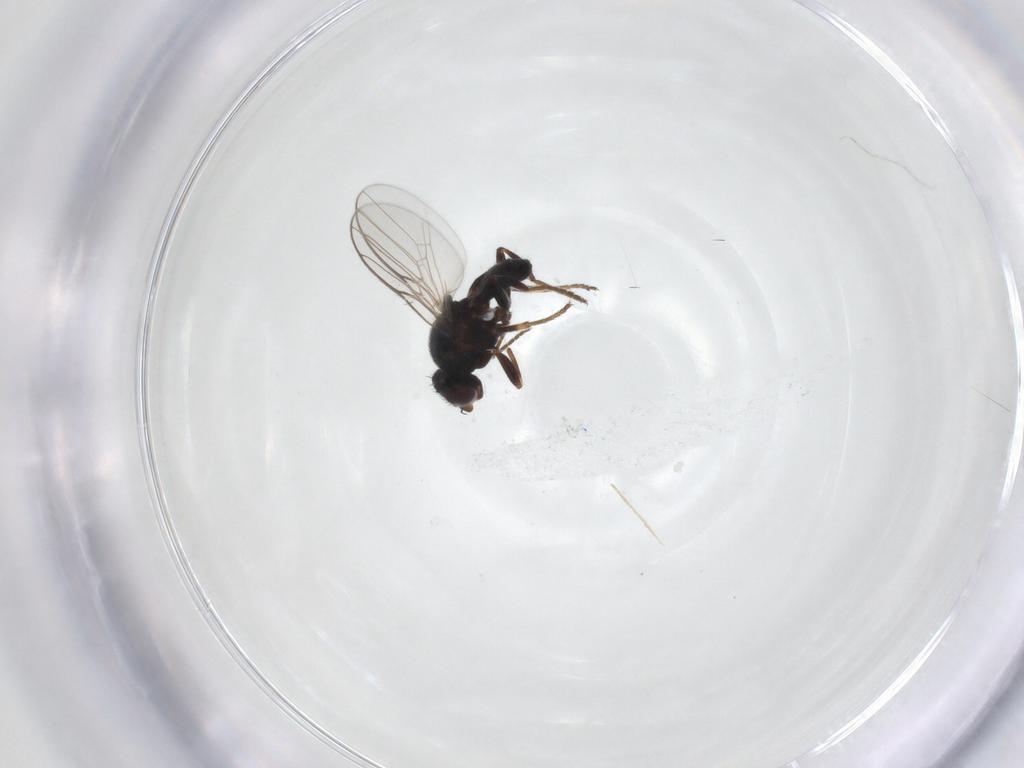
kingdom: Animalia
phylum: Arthropoda
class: Insecta
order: Diptera
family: Chloropidae
